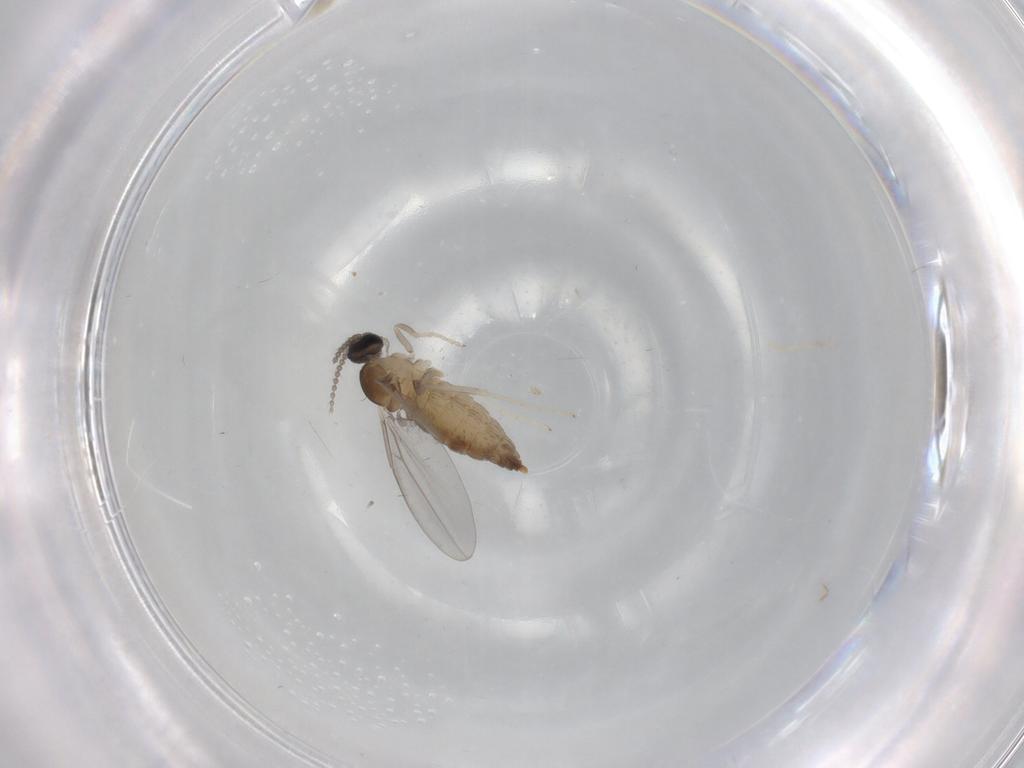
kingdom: Animalia
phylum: Arthropoda
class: Insecta
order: Diptera
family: Cecidomyiidae
